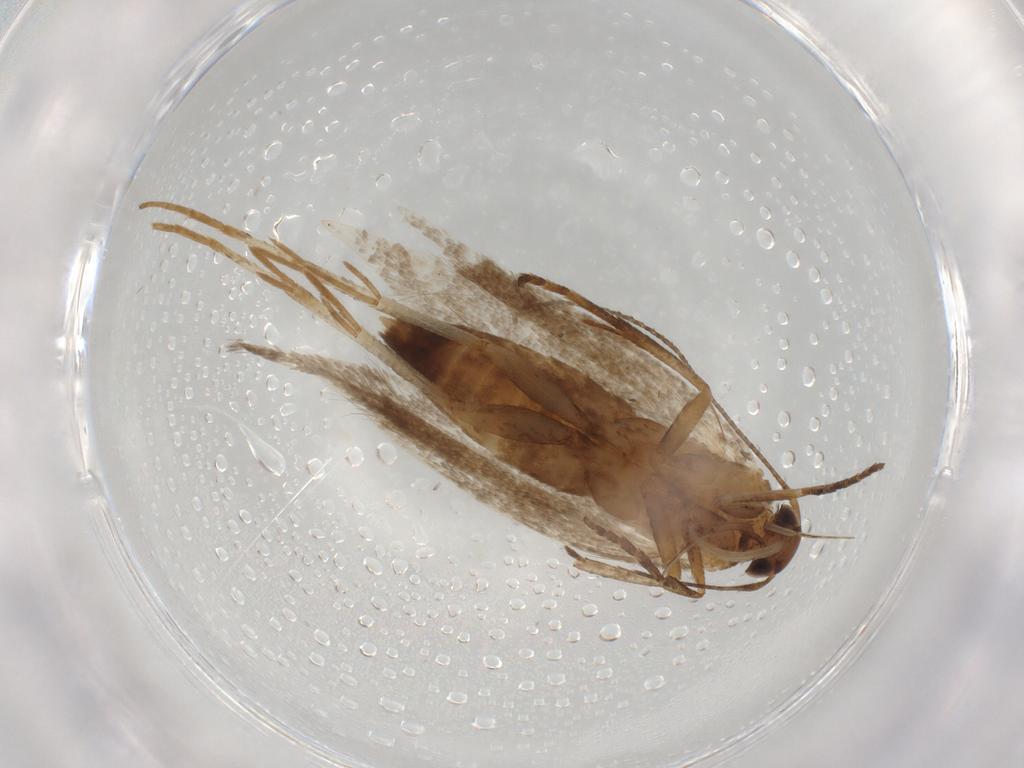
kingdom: Animalia
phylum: Arthropoda
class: Insecta
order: Lepidoptera
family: Gelechiidae
